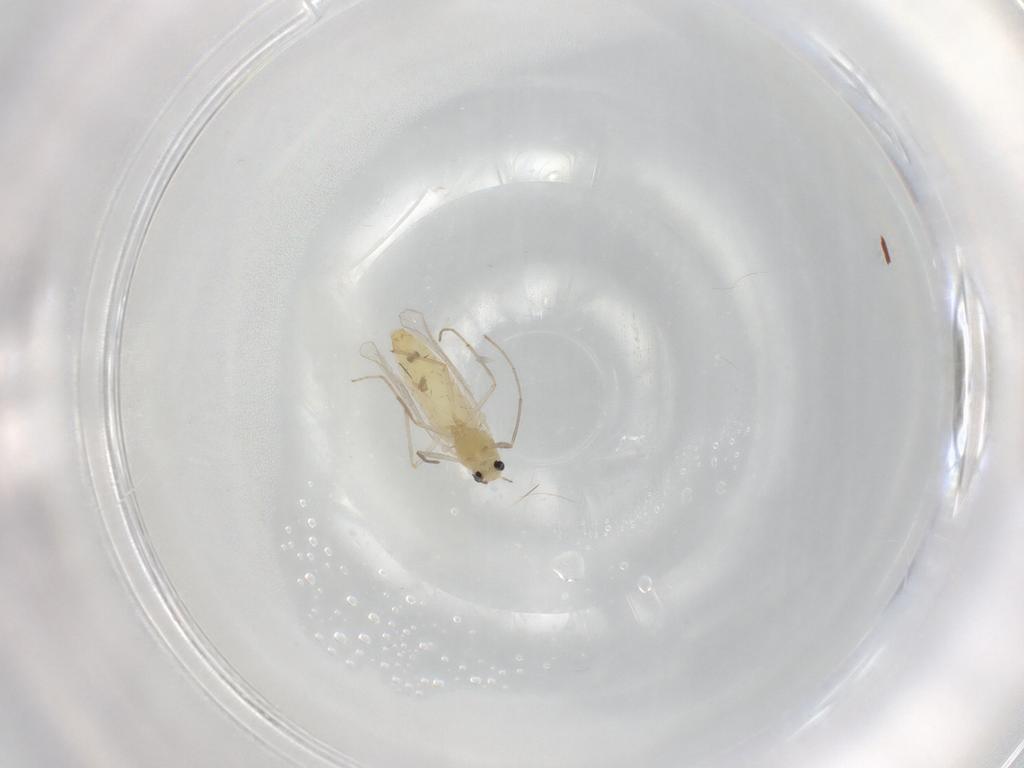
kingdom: Animalia
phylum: Arthropoda
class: Insecta
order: Diptera
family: Chironomidae
